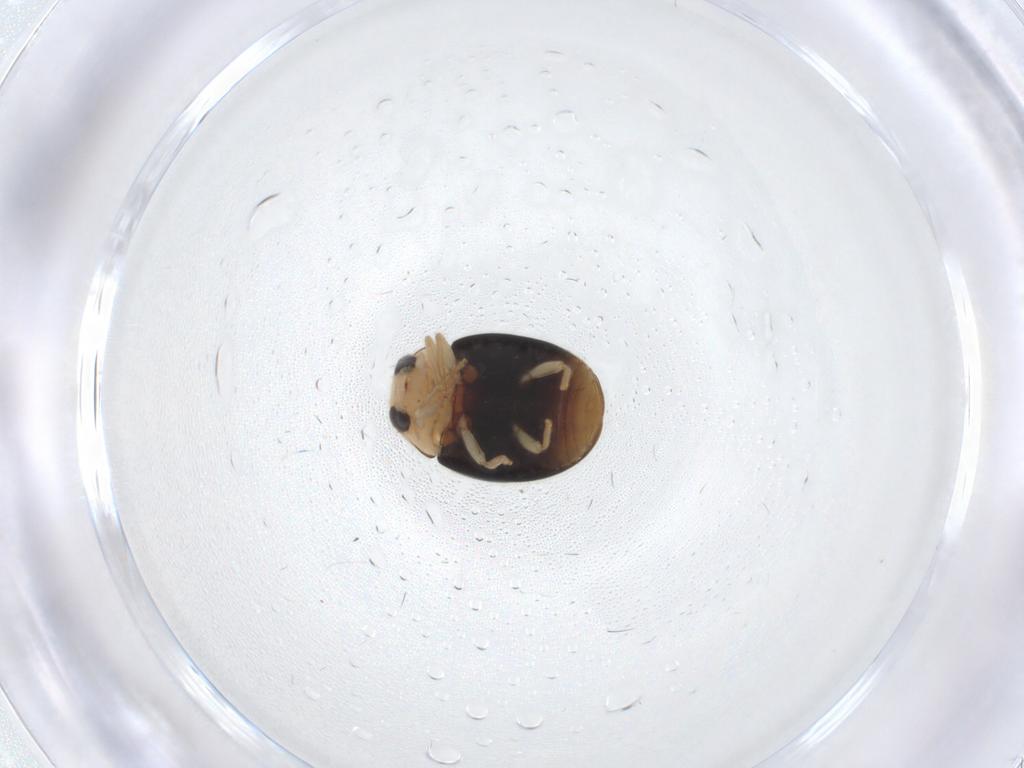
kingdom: Animalia
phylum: Arthropoda
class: Insecta
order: Coleoptera
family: Coccinellidae
